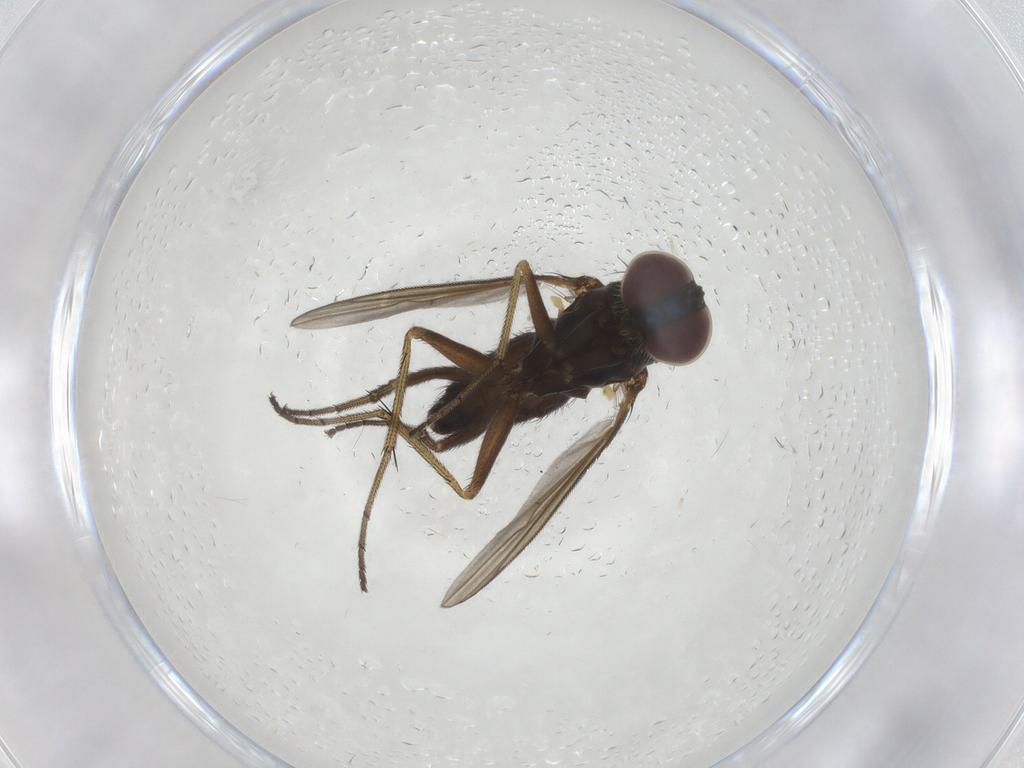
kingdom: Animalia
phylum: Arthropoda
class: Insecta
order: Diptera
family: Dolichopodidae
